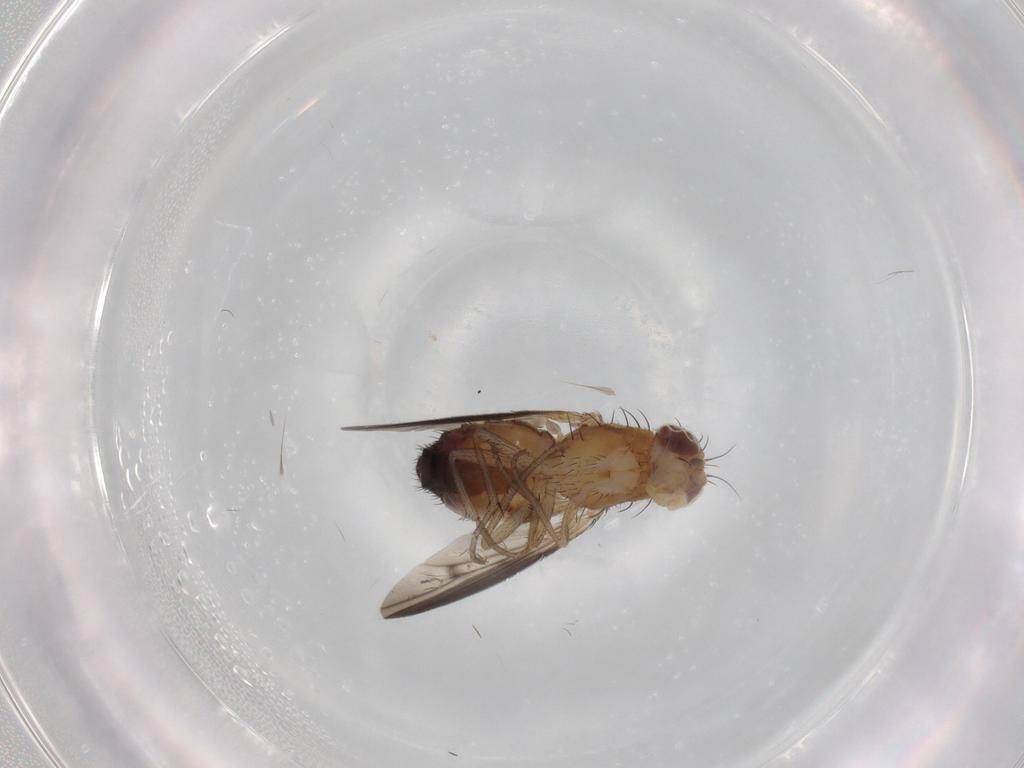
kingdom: Animalia
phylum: Arthropoda
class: Insecta
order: Diptera
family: Heleomyzidae
